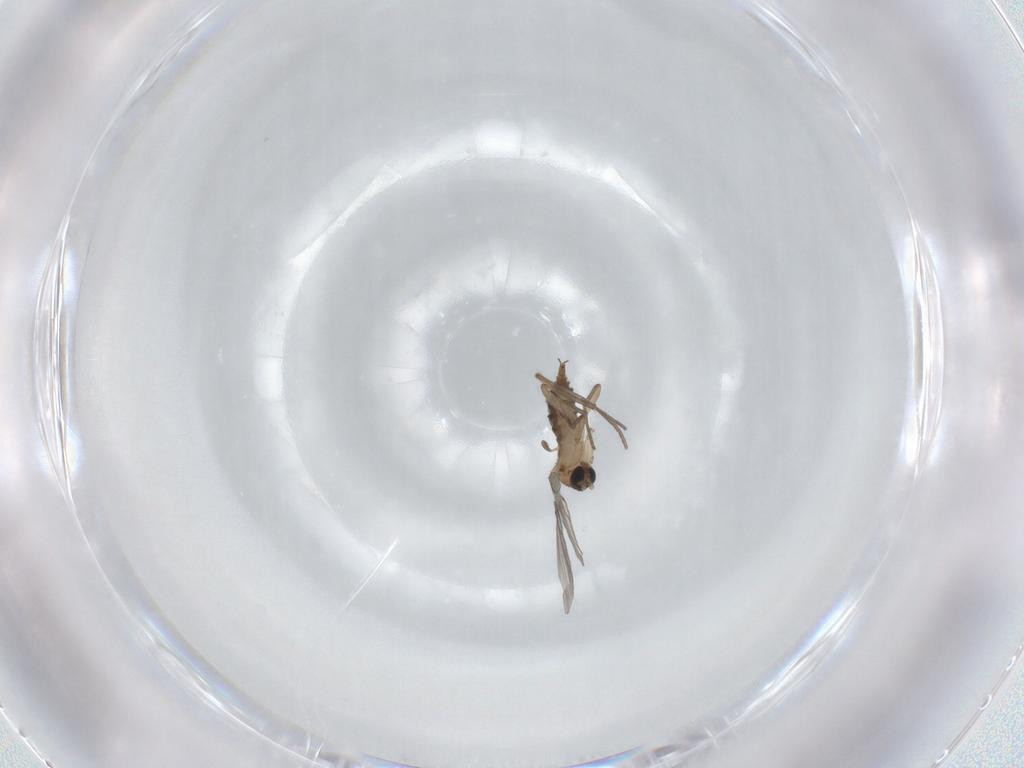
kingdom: Animalia
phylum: Arthropoda
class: Insecta
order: Diptera
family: Sciaridae
